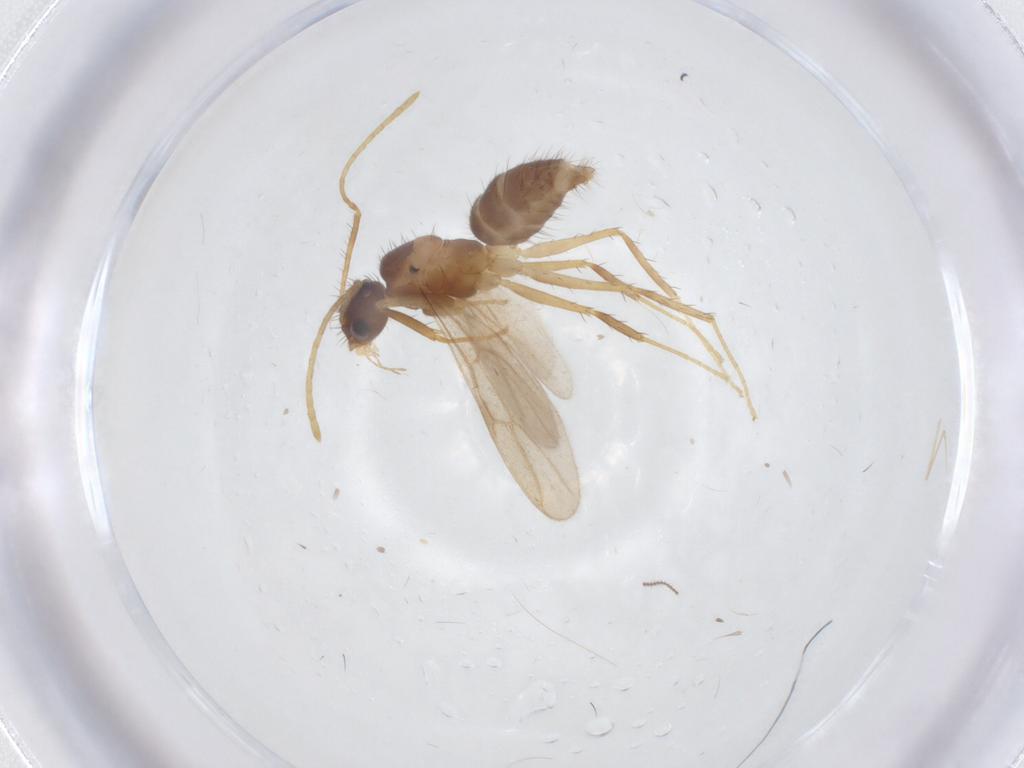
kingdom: Animalia
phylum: Arthropoda
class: Insecta
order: Hymenoptera
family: Formicidae
